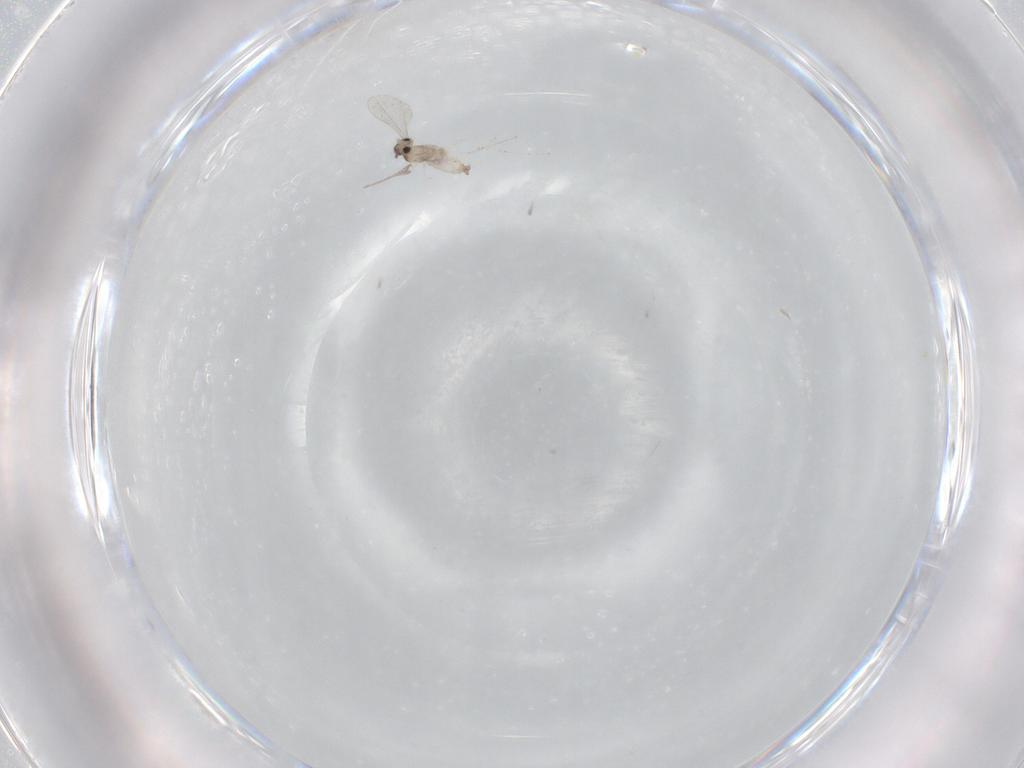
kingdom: Animalia
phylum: Arthropoda
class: Insecta
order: Diptera
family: Cecidomyiidae
